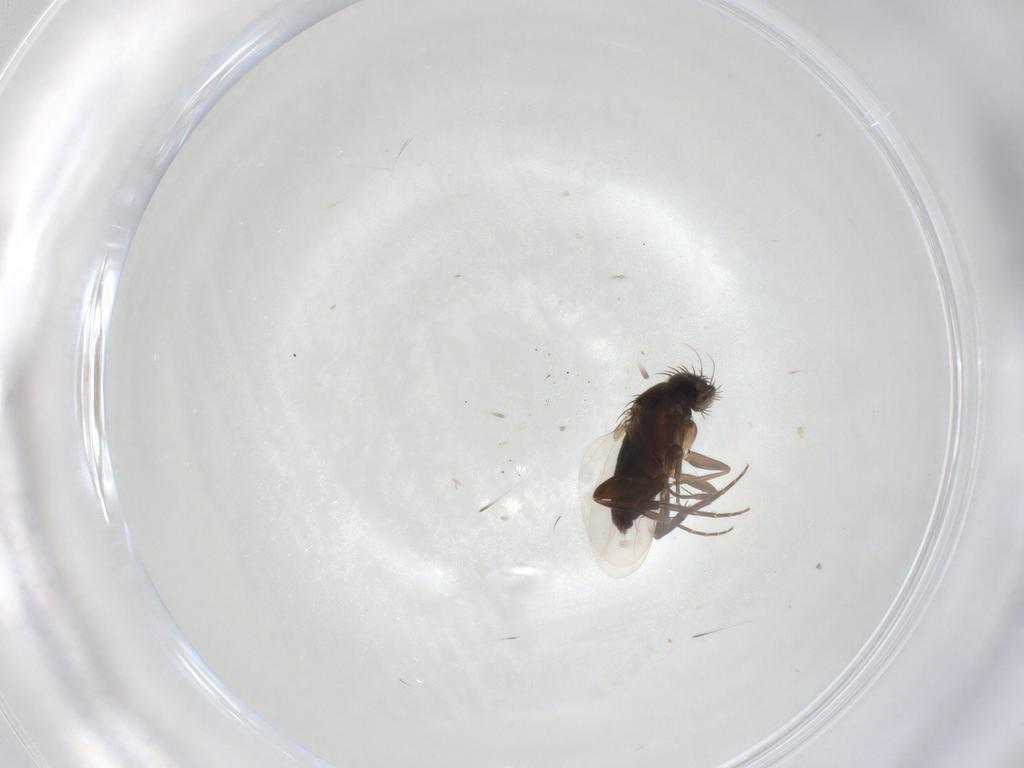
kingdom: Animalia
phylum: Arthropoda
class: Insecta
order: Diptera
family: Phoridae
